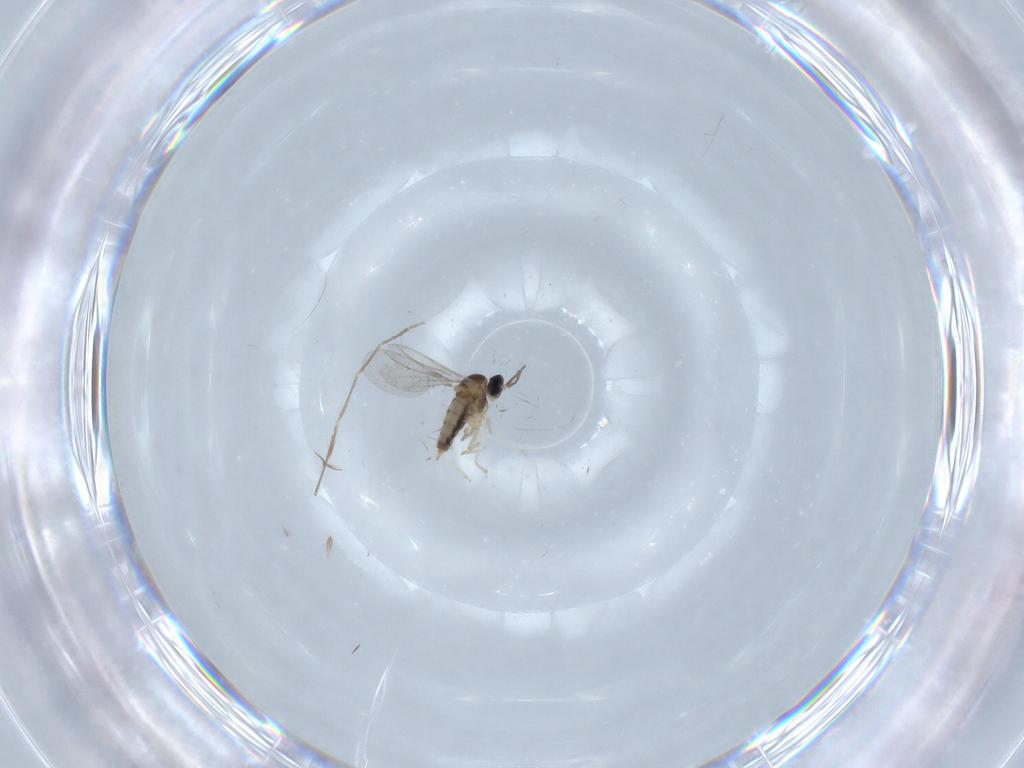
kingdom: Animalia
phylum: Arthropoda
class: Insecta
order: Diptera
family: Cecidomyiidae
